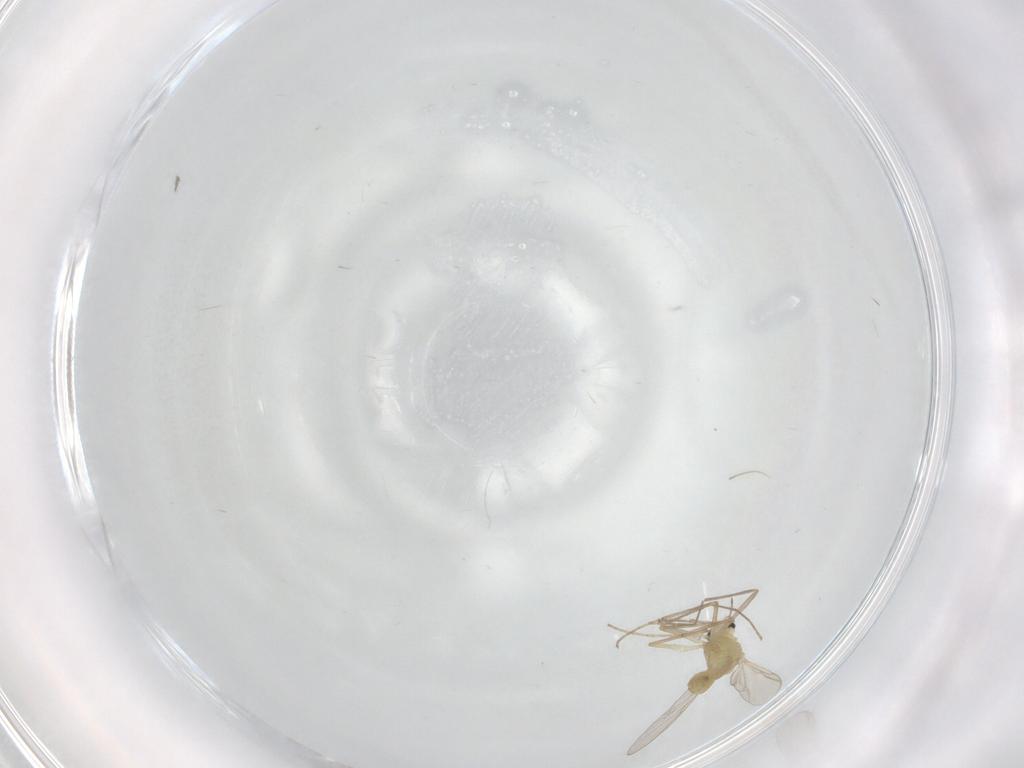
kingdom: Animalia
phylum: Arthropoda
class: Insecta
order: Diptera
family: Chironomidae
